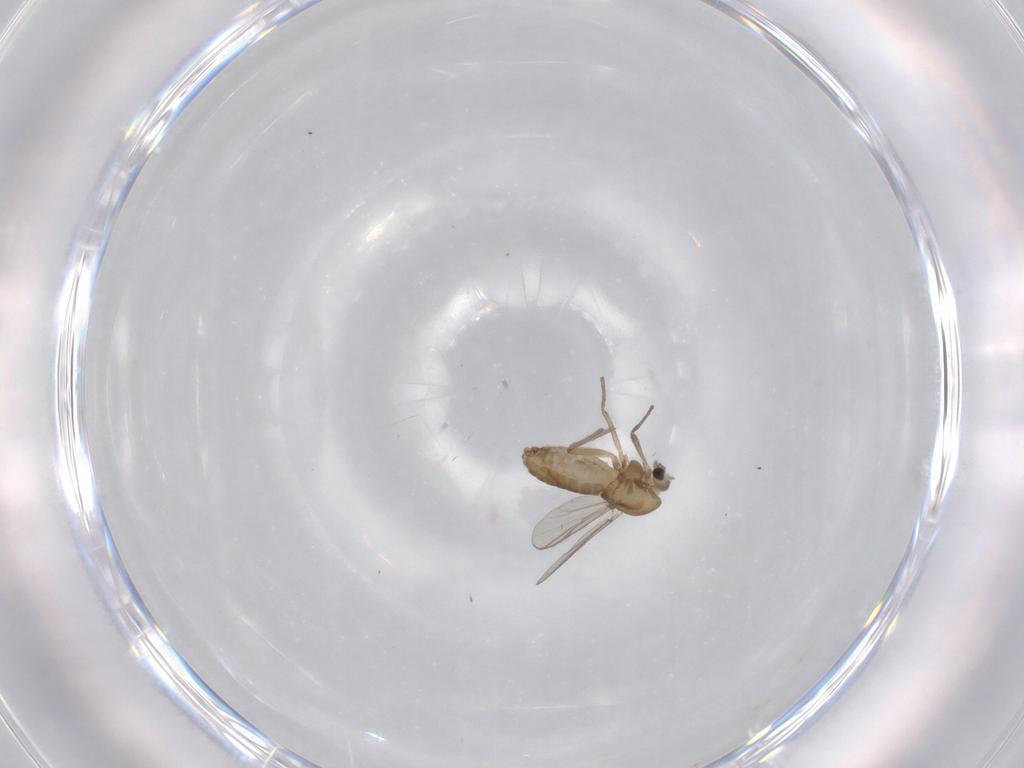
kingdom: Animalia
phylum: Arthropoda
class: Insecta
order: Diptera
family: Chironomidae
